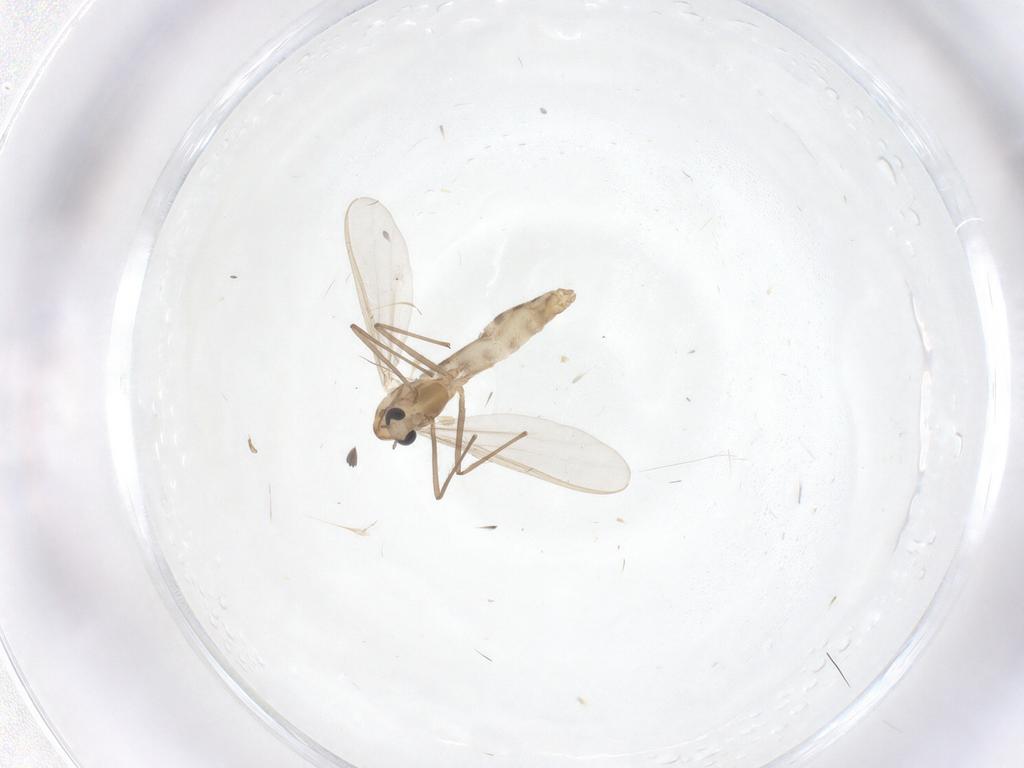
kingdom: Animalia
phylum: Arthropoda
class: Insecta
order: Diptera
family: Chironomidae
